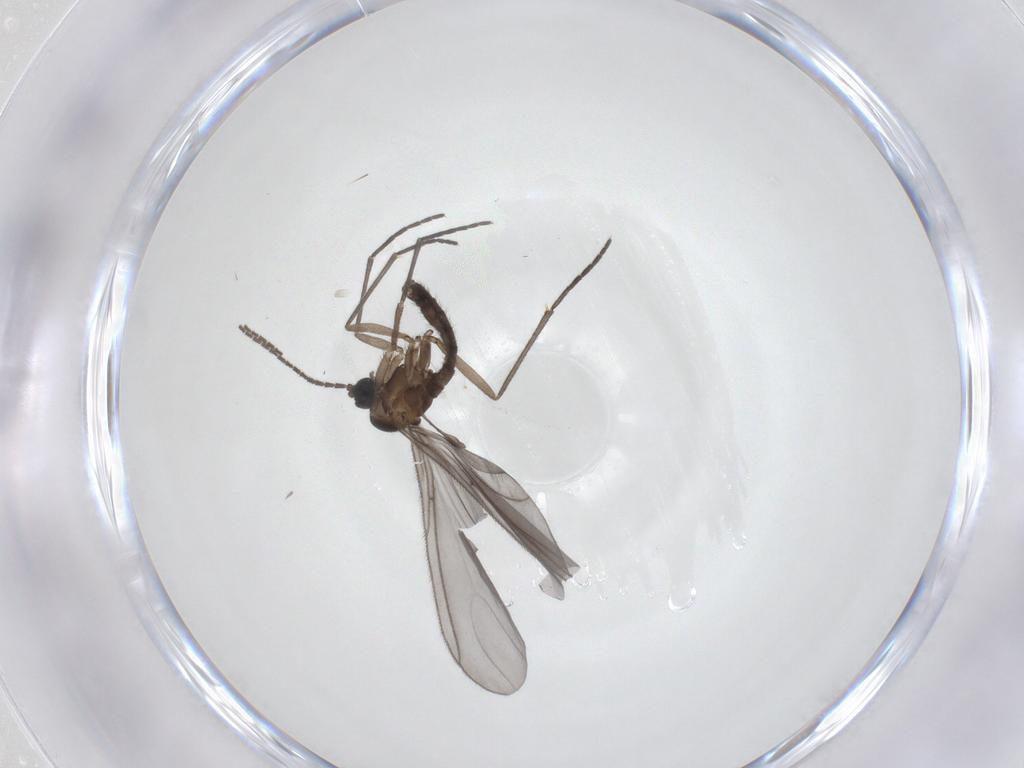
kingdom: Animalia
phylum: Arthropoda
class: Insecta
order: Diptera
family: Sciaridae
